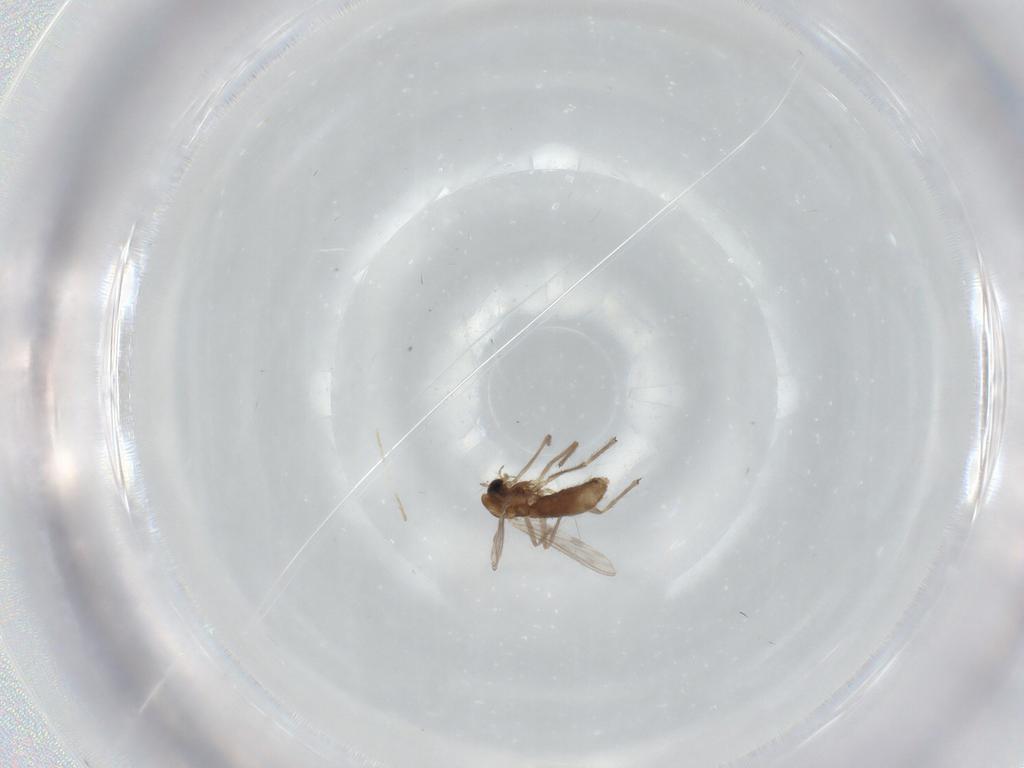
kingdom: Animalia
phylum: Arthropoda
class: Insecta
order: Diptera
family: Chironomidae
